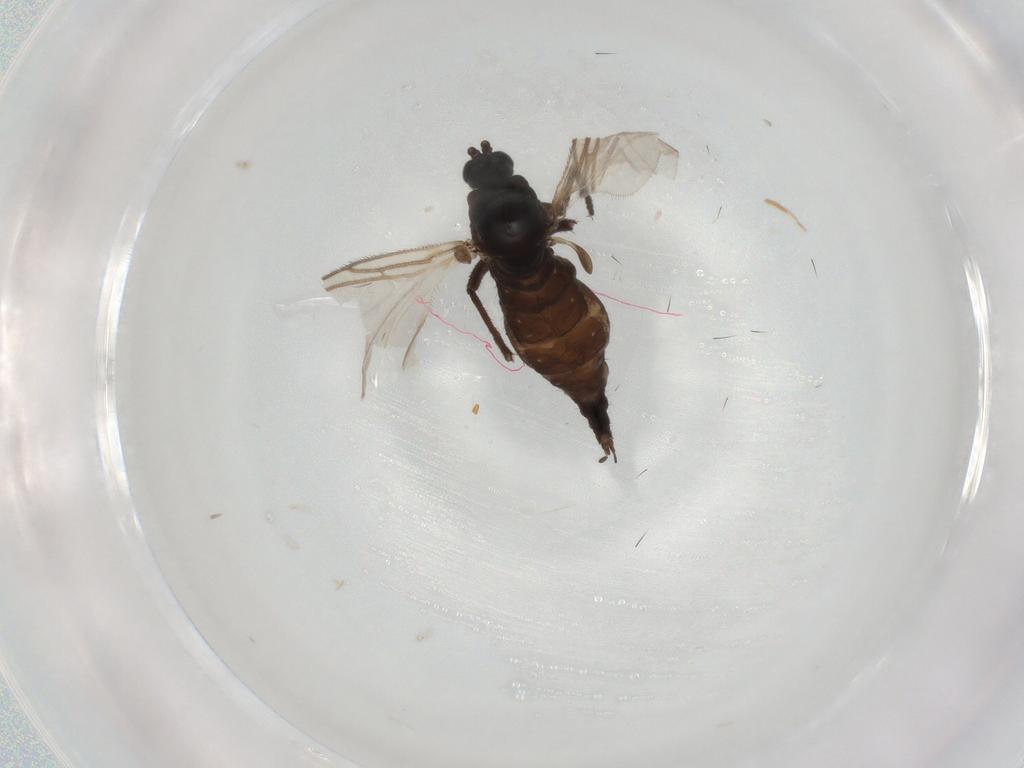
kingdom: Animalia
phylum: Arthropoda
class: Insecta
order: Diptera
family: Sciaridae
